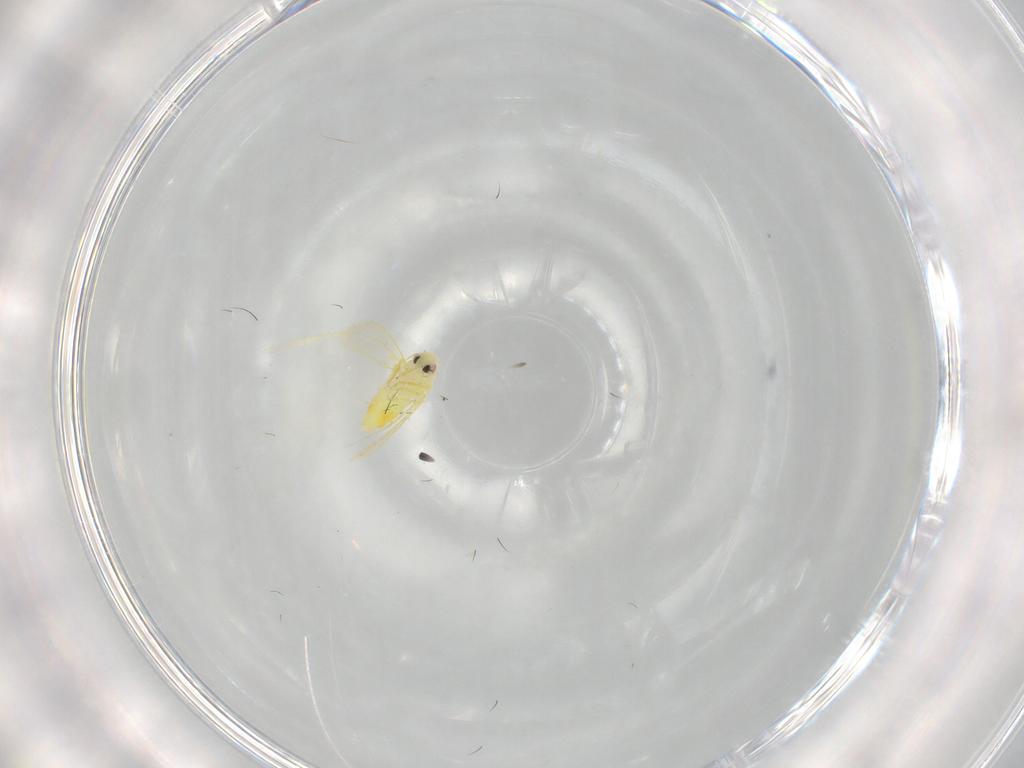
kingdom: Animalia
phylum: Arthropoda
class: Insecta
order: Hemiptera
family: Aleyrodidae
